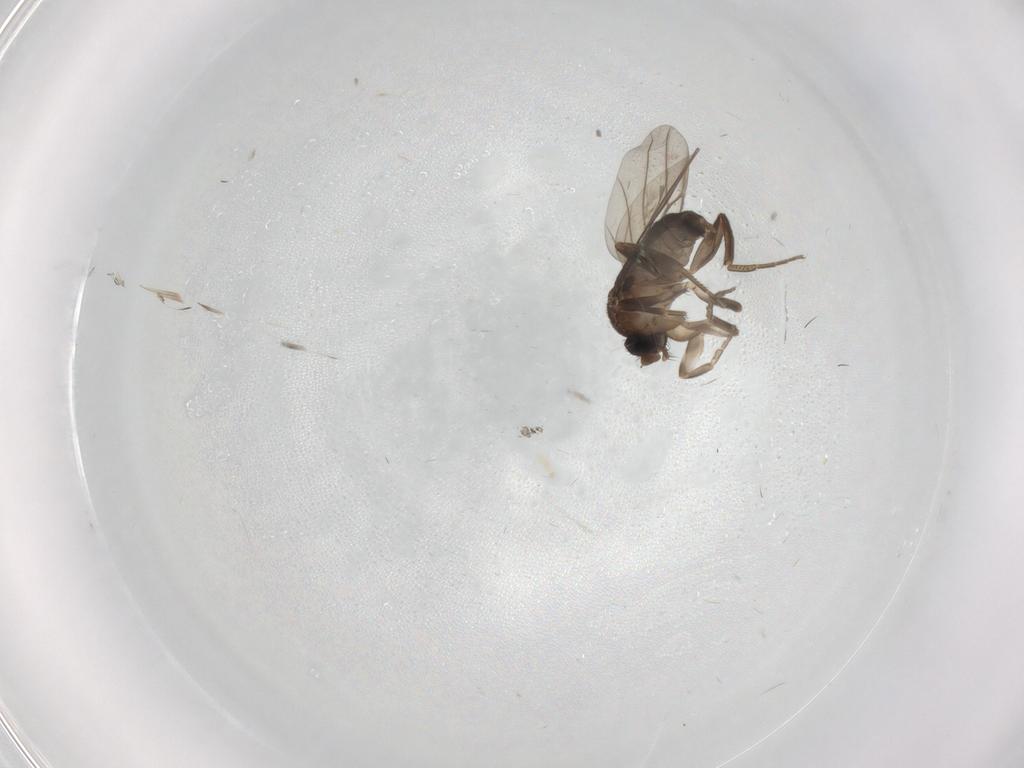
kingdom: Animalia
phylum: Arthropoda
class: Insecta
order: Diptera
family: Phoridae
